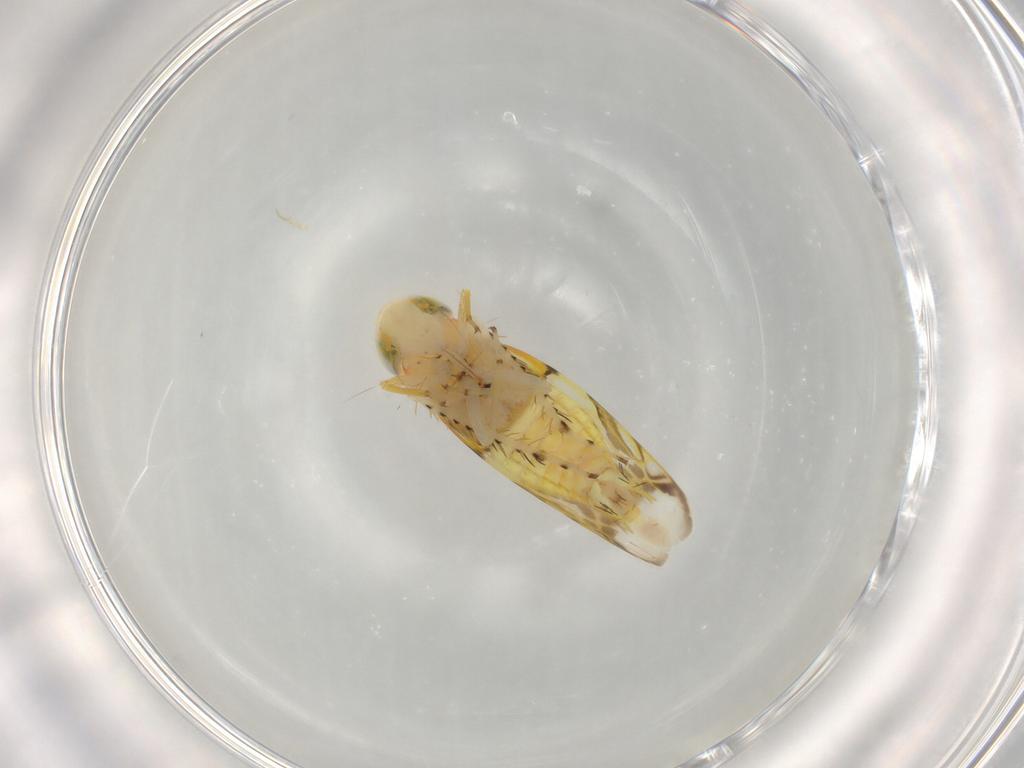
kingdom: Animalia
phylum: Arthropoda
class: Insecta
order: Hemiptera
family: Cicadellidae
